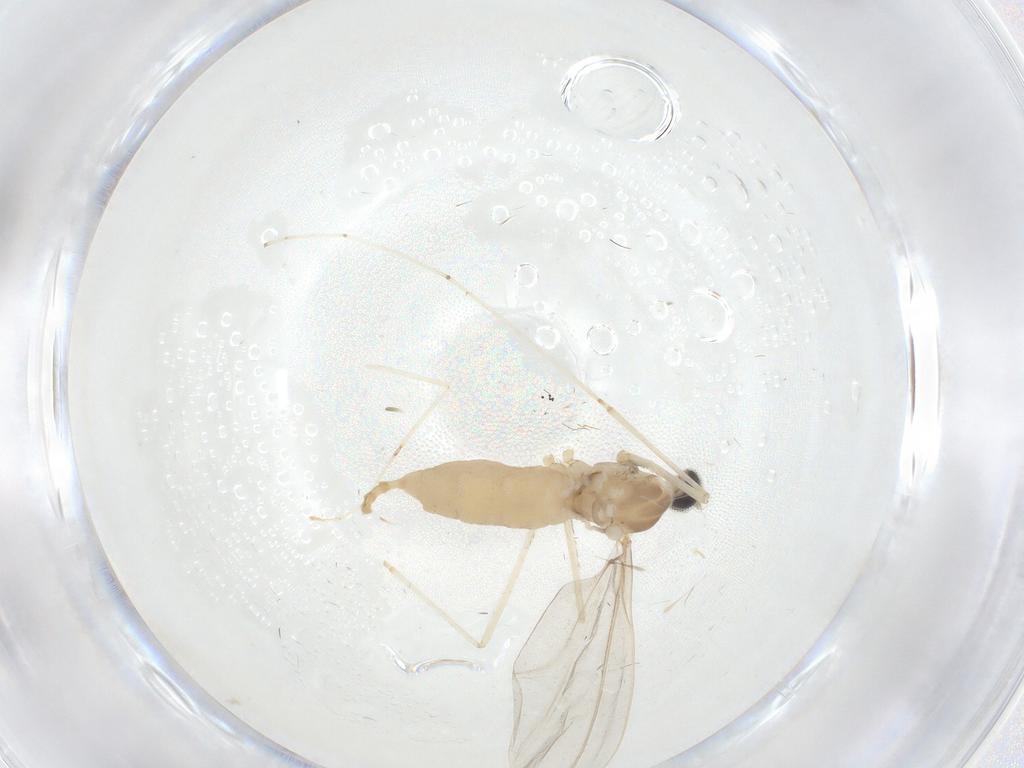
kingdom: Animalia
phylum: Arthropoda
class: Insecta
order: Diptera
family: Cecidomyiidae
